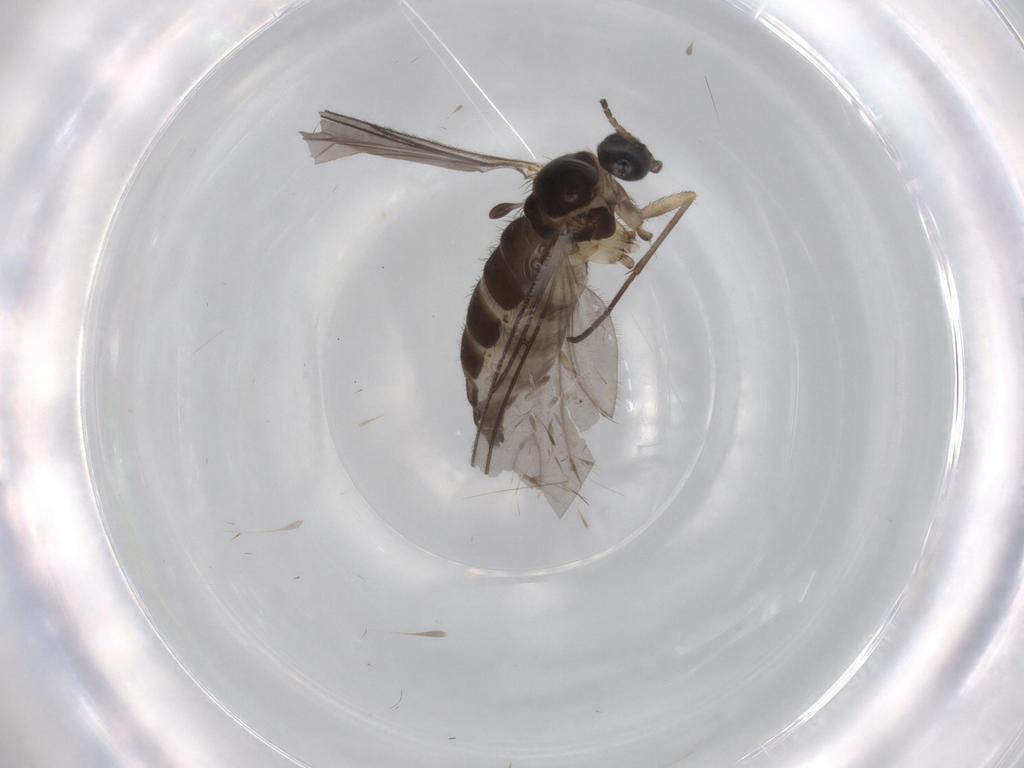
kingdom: Animalia
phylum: Arthropoda
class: Insecta
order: Diptera
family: Sciaridae
